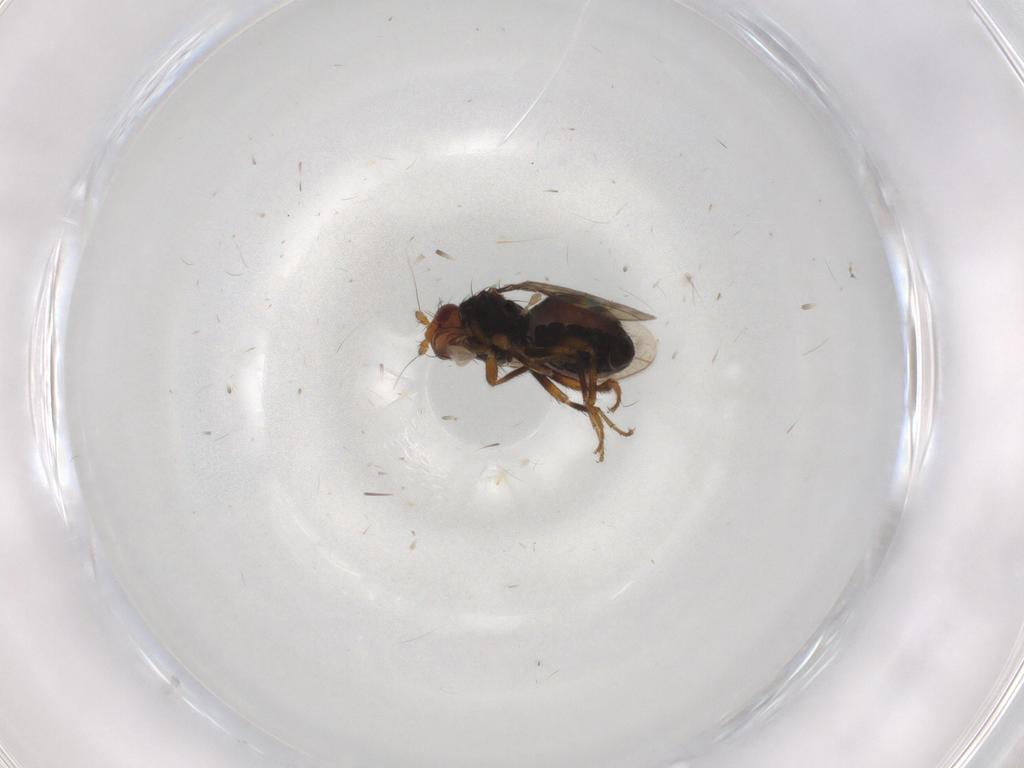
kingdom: Animalia
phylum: Arthropoda
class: Insecta
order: Diptera
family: Sphaeroceridae
